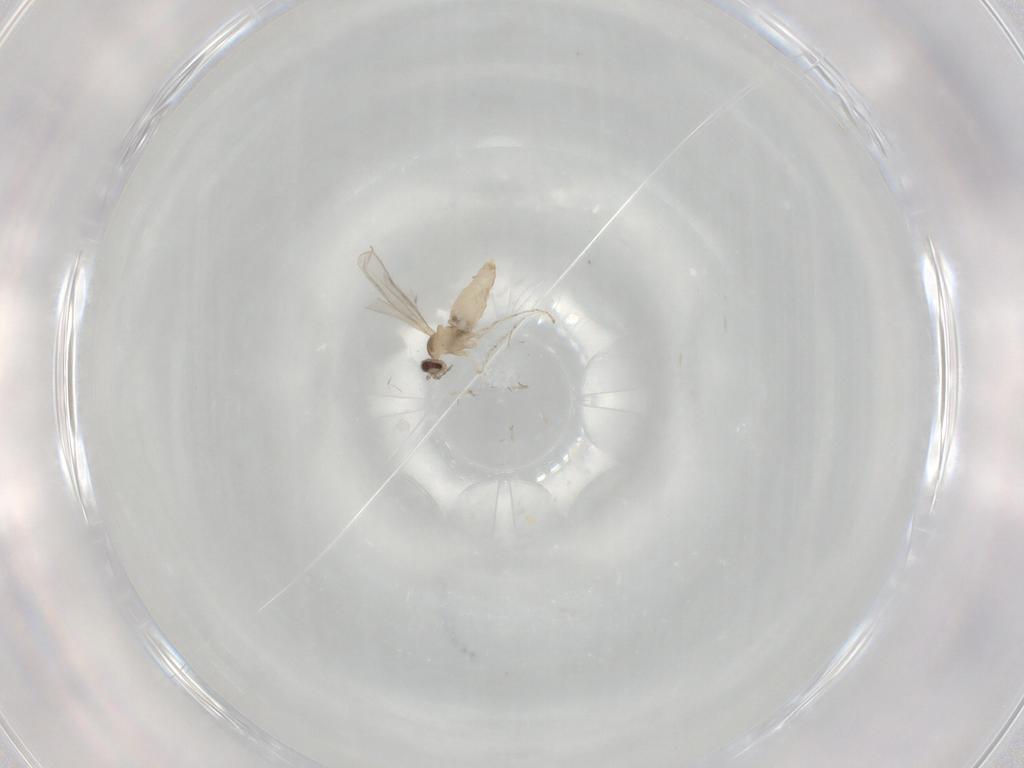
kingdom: Animalia
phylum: Arthropoda
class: Insecta
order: Diptera
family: Cecidomyiidae
